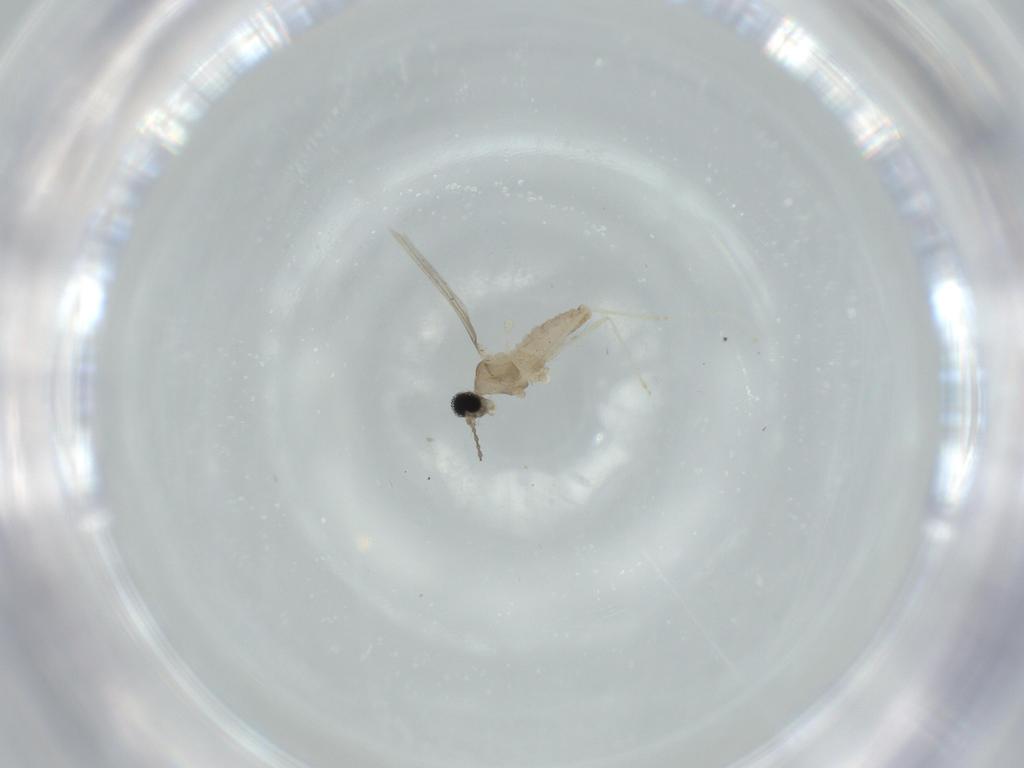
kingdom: Animalia
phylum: Arthropoda
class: Insecta
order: Diptera
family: Cecidomyiidae
